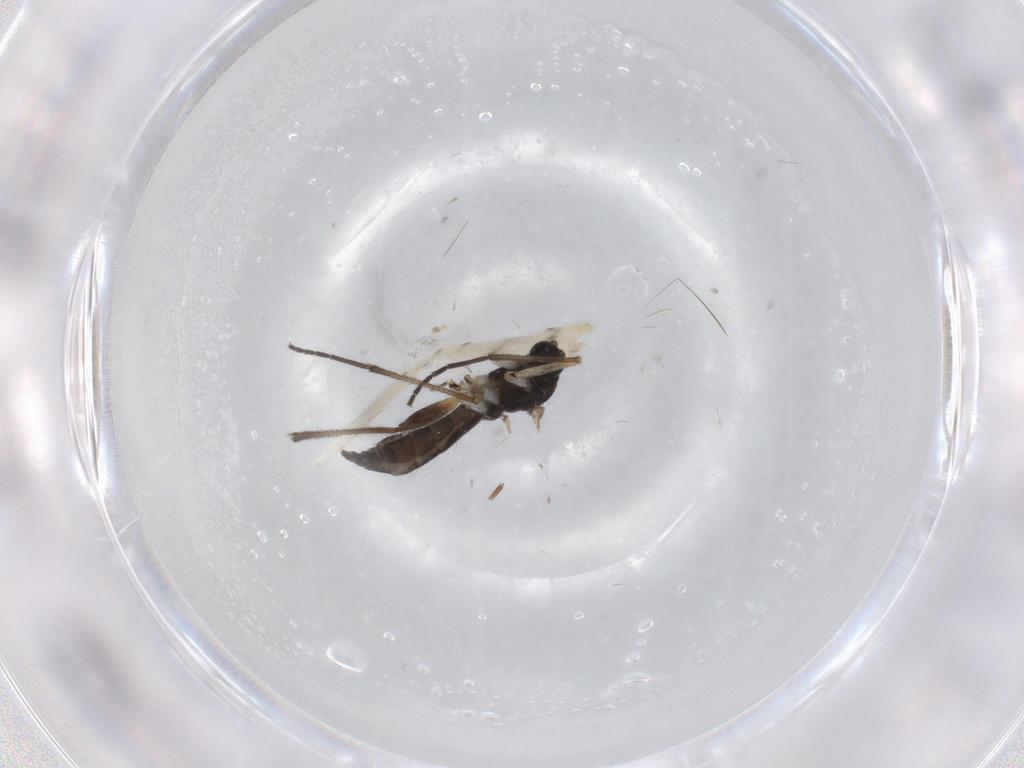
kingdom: Animalia
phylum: Arthropoda
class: Insecta
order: Diptera
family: Sciaridae
